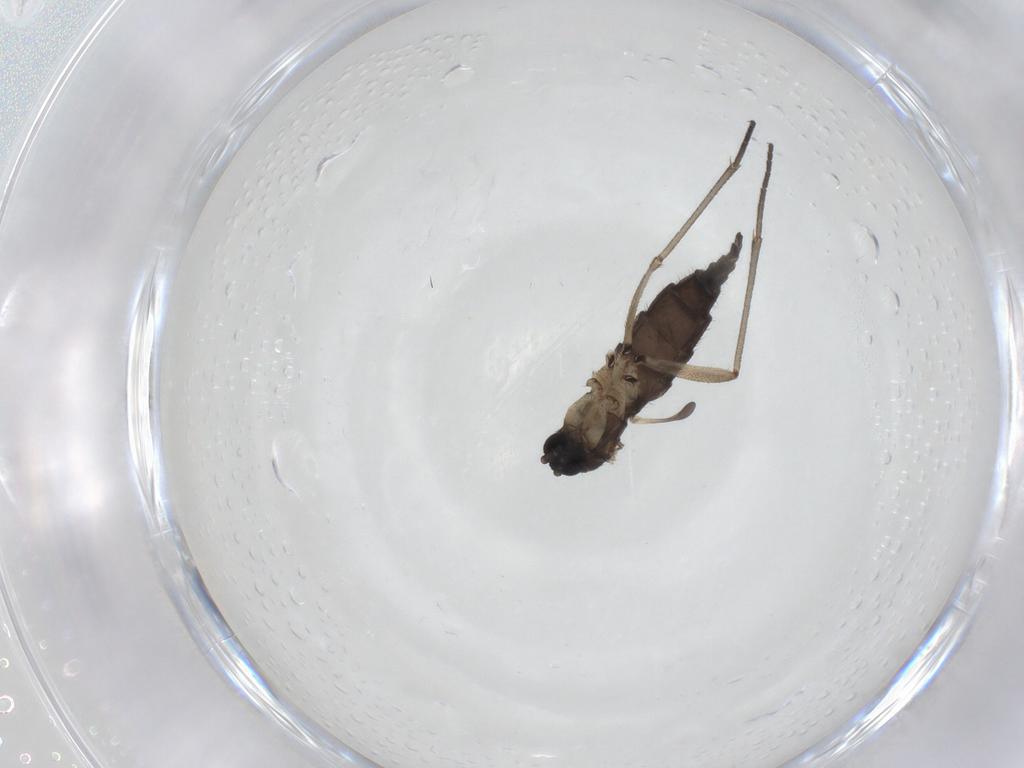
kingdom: Animalia
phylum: Arthropoda
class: Insecta
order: Diptera
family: Sciaridae
